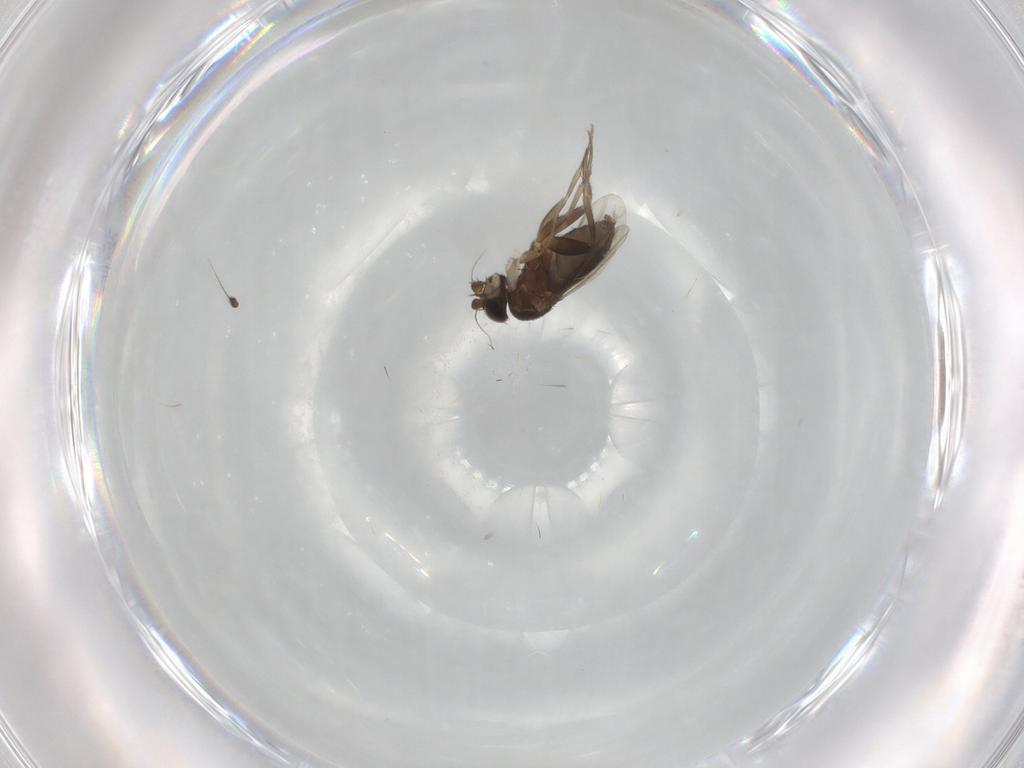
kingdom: Animalia
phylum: Arthropoda
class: Insecta
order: Diptera
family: Phoridae
